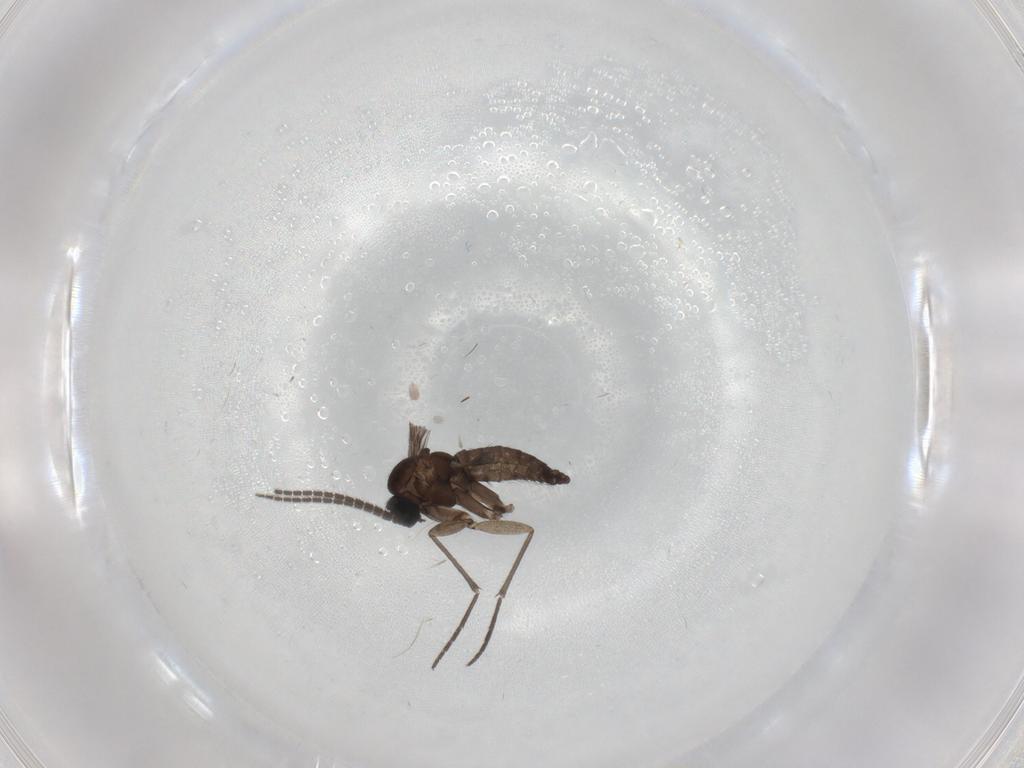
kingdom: Animalia
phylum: Arthropoda
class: Insecta
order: Diptera
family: Sciaridae
